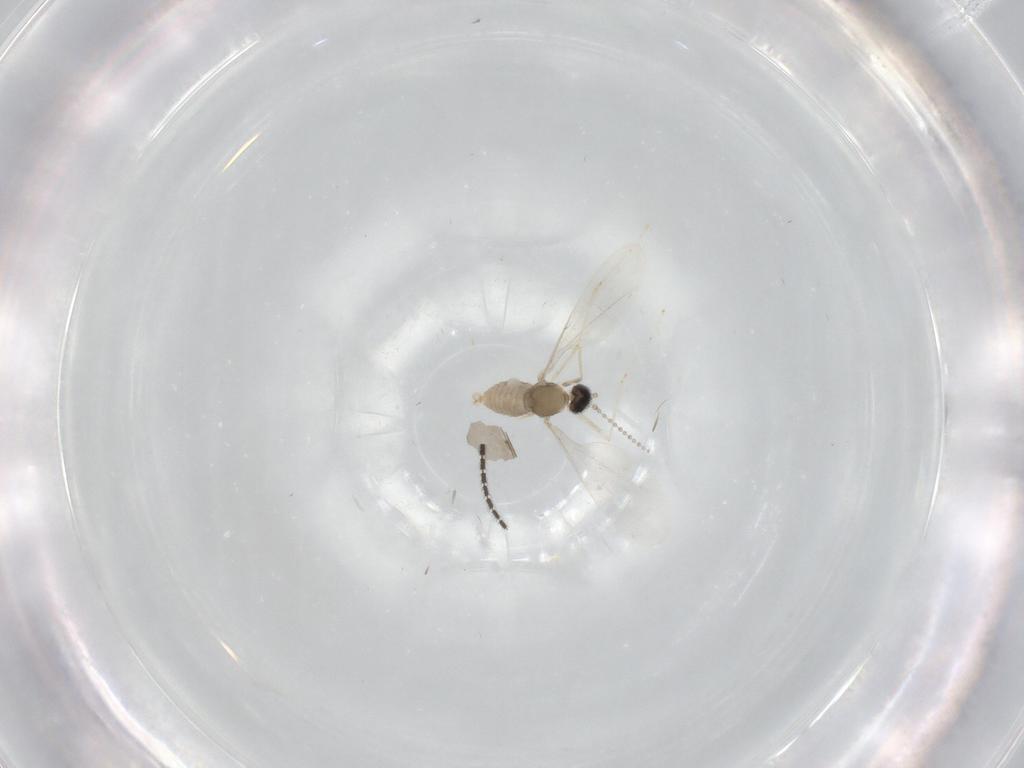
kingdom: Animalia
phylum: Arthropoda
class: Insecta
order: Diptera
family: Cecidomyiidae
